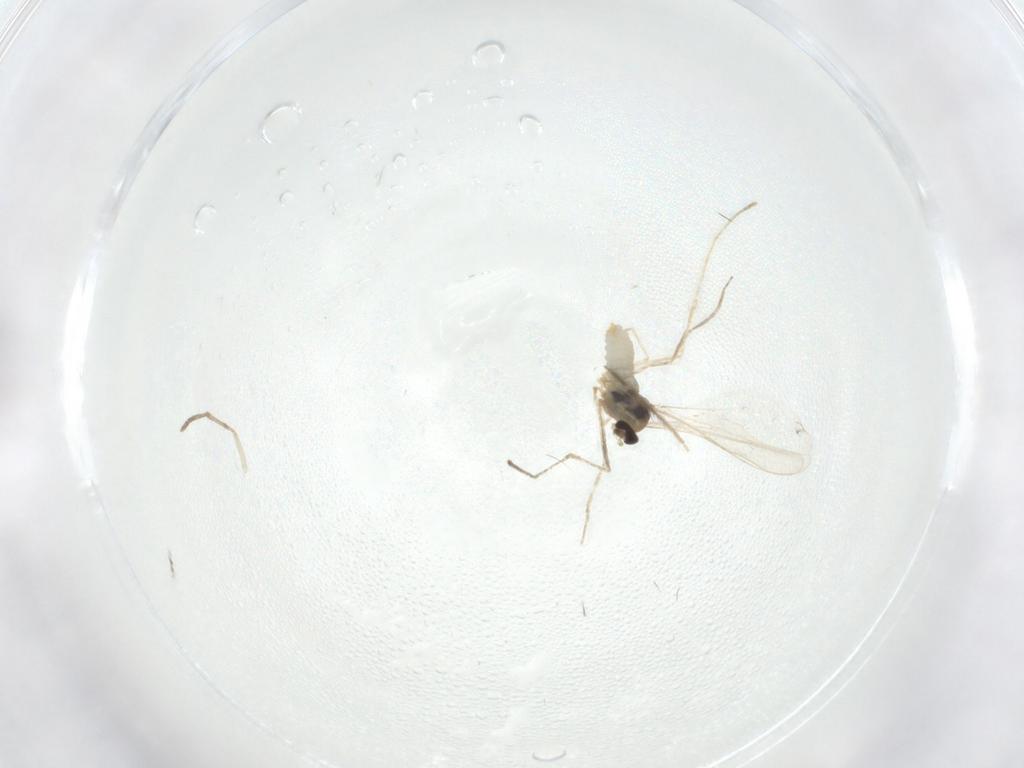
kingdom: Animalia
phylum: Arthropoda
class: Insecta
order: Diptera
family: Cecidomyiidae
